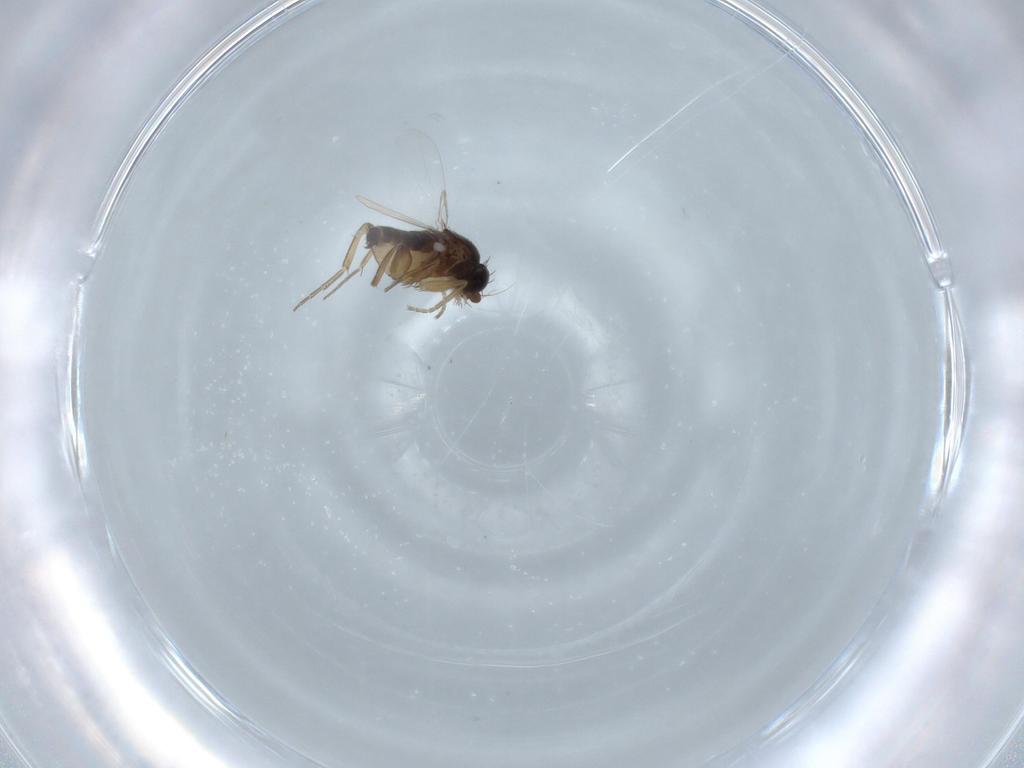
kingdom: Animalia
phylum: Arthropoda
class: Insecta
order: Diptera
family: Phoridae
